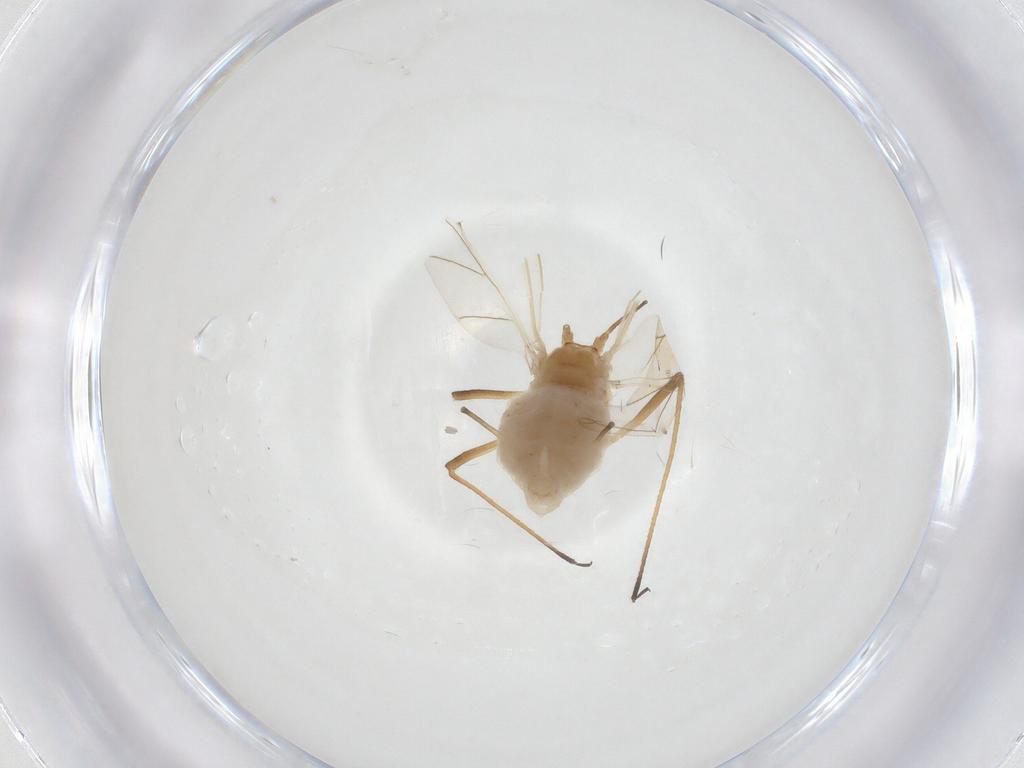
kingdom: Animalia
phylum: Arthropoda
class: Insecta
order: Hemiptera
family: Aphididae
